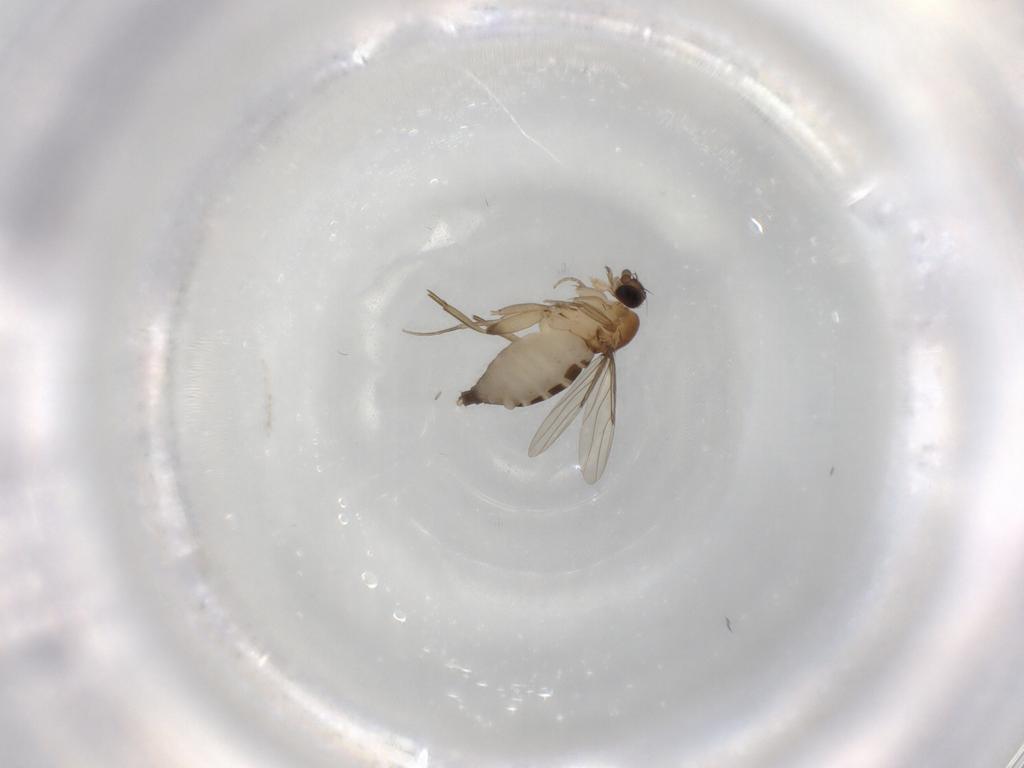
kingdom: Animalia
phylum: Arthropoda
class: Insecta
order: Diptera
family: Phoridae
